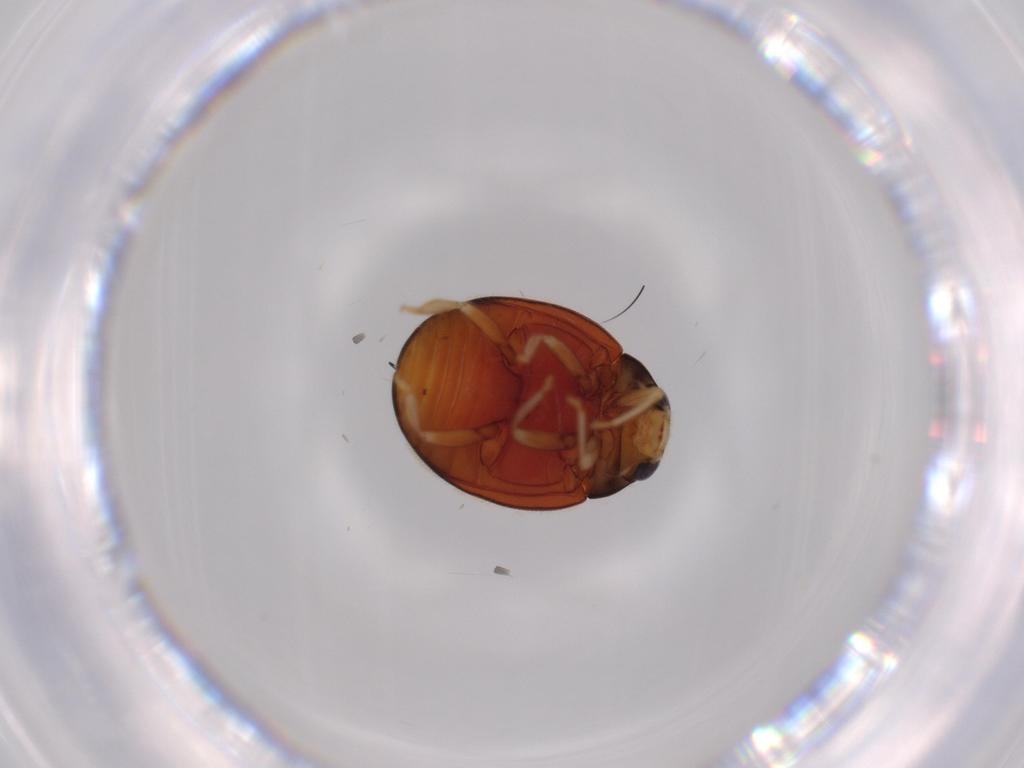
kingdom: Animalia
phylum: Arthropoda
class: Insecta
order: Coleoptera
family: Coccinellidae
